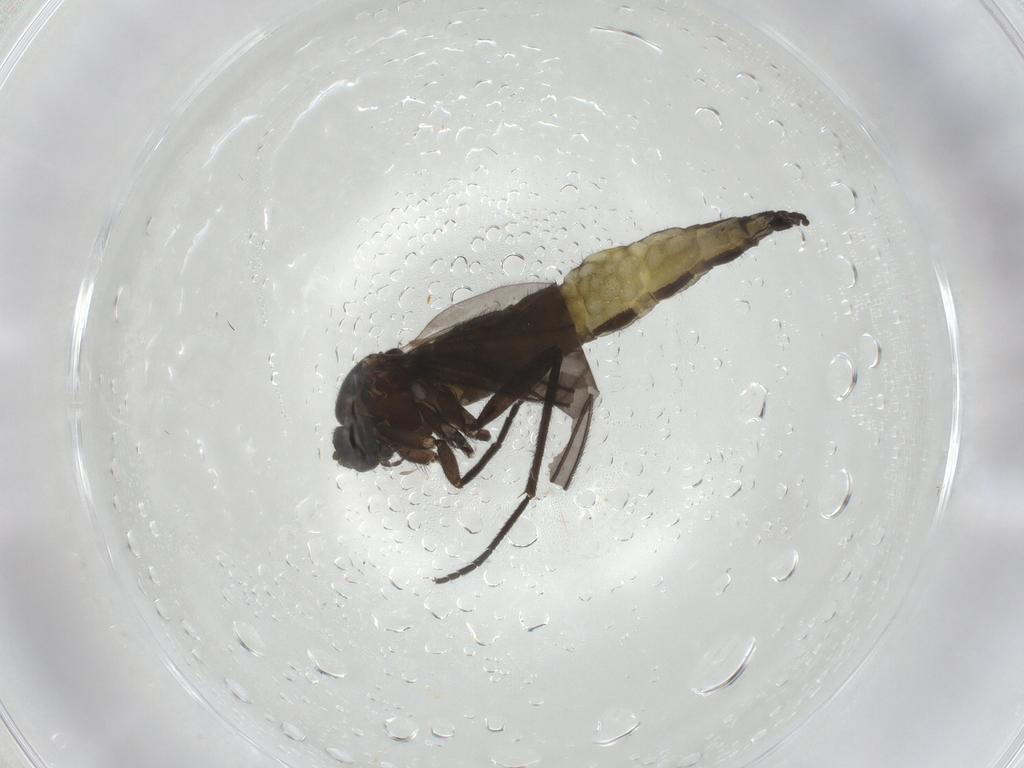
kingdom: Animalia
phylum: Arthropoda
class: Insecta
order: Diptera
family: Sciaridae
